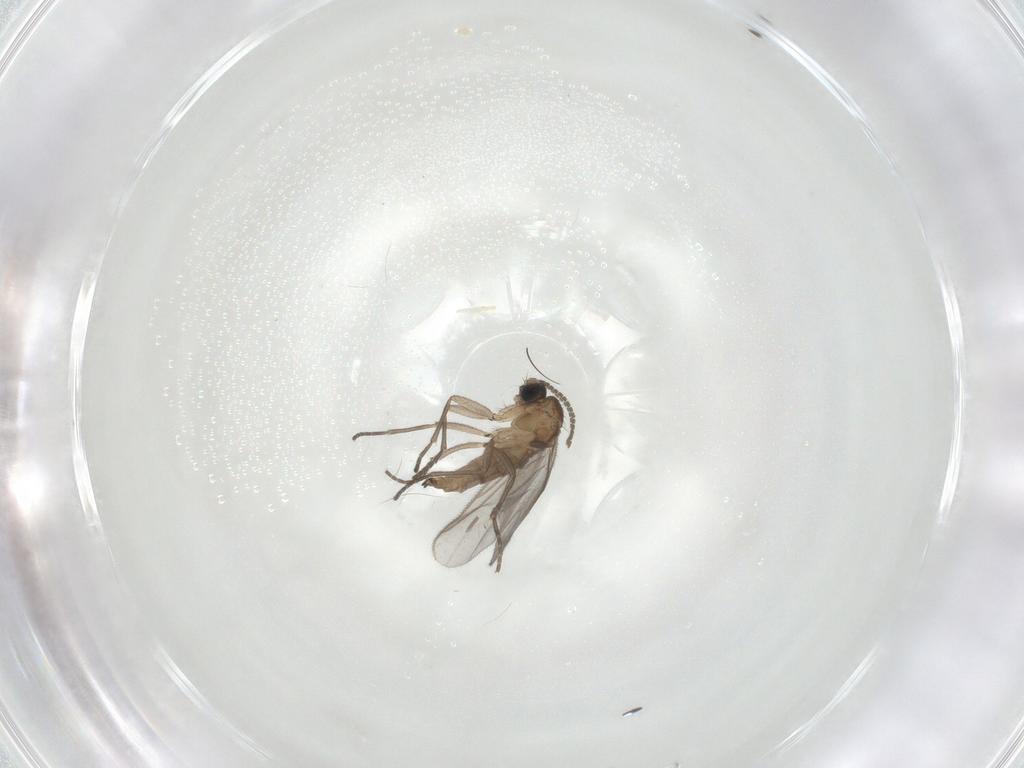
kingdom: Animalia
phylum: Arthropoda
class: Insecta
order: Diptera
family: Sciaridae
